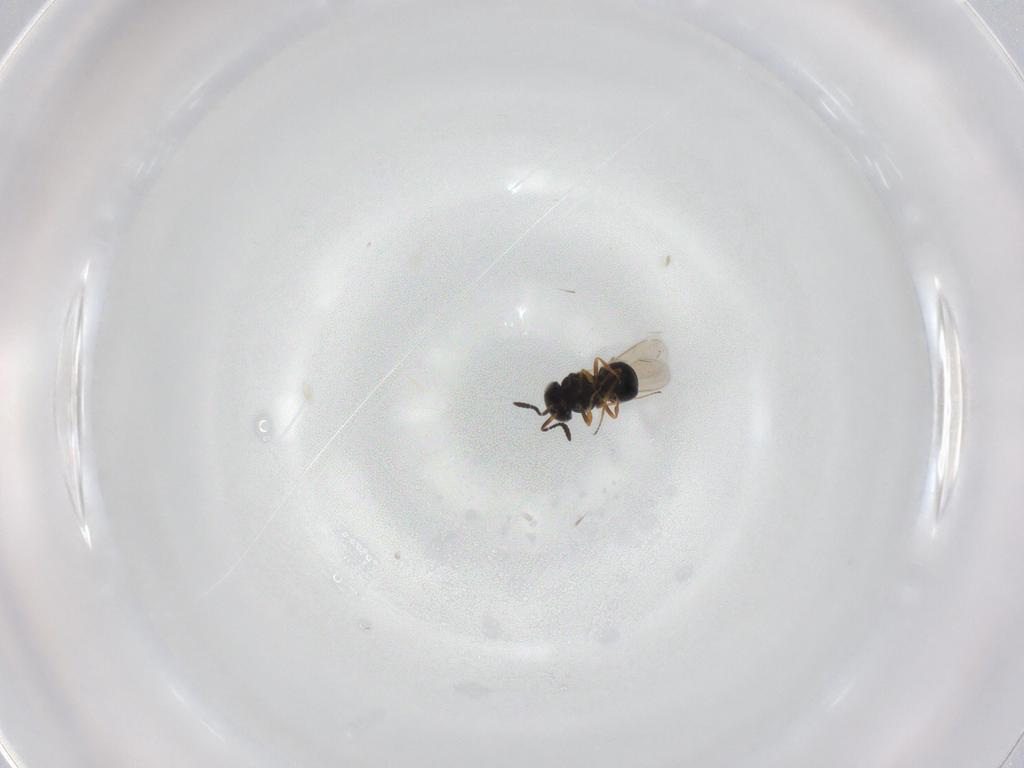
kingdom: Animalia
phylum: Arthropoda
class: Insecta
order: Hymenoptera
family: Scelionidae
